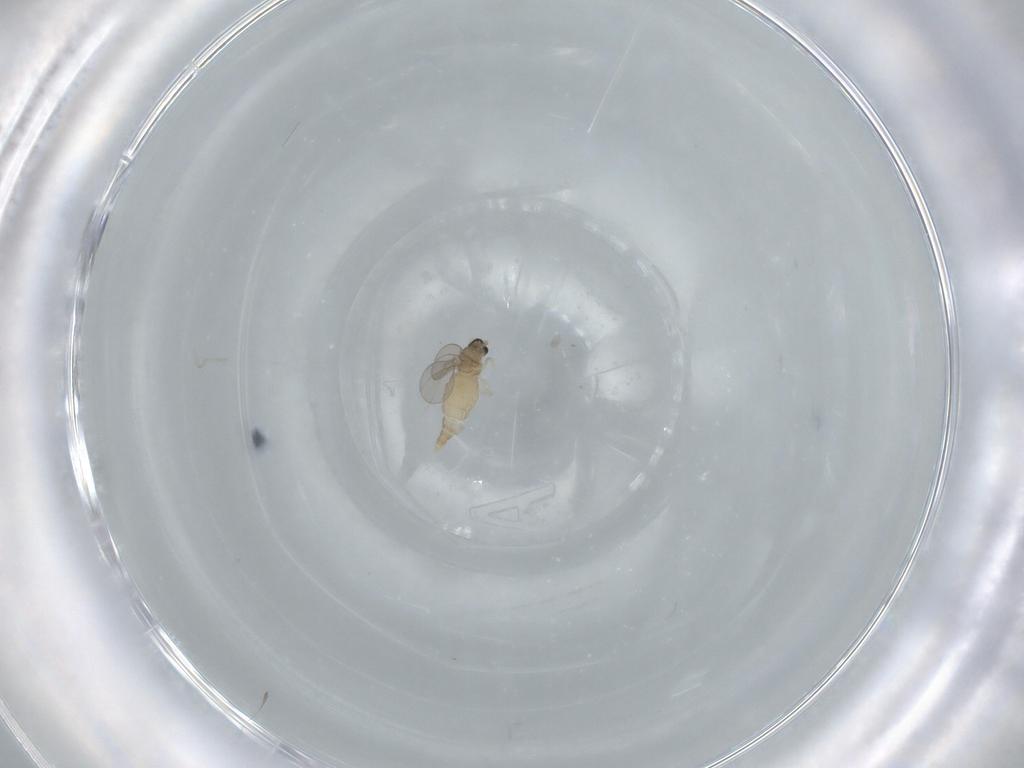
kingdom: Animalia
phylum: Arthropoda
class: Insecta
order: Diptera
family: Cecidomyiidae
